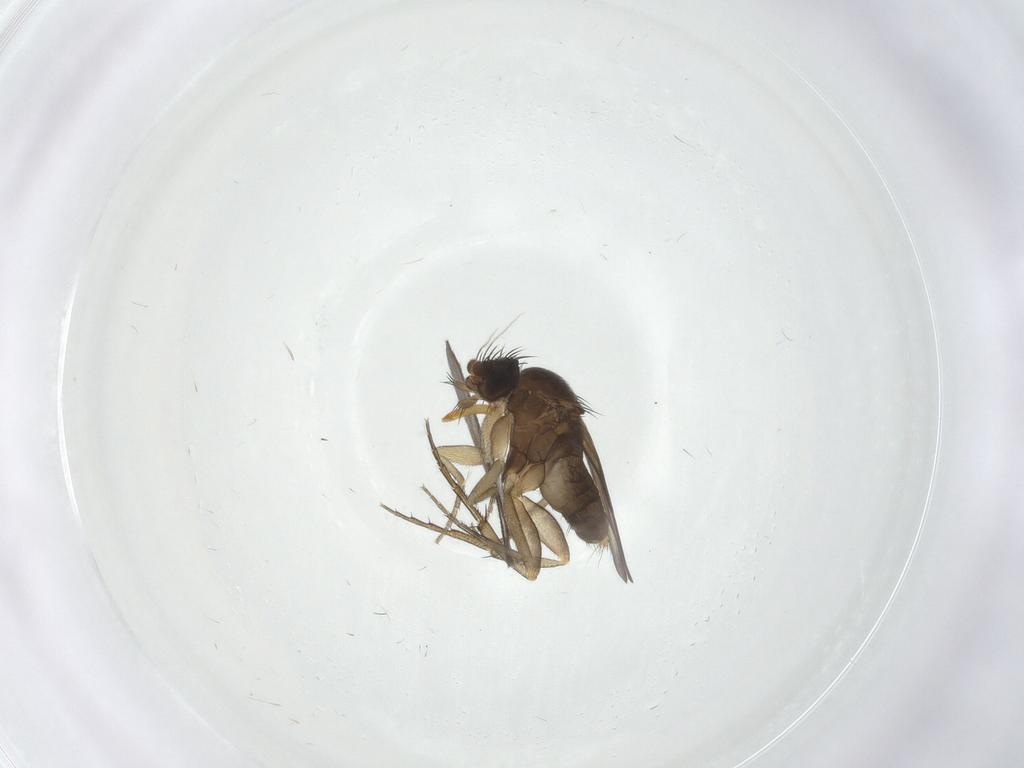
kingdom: Animalia
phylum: Arthropoda
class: Insecta
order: Diptera
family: Phoridae
